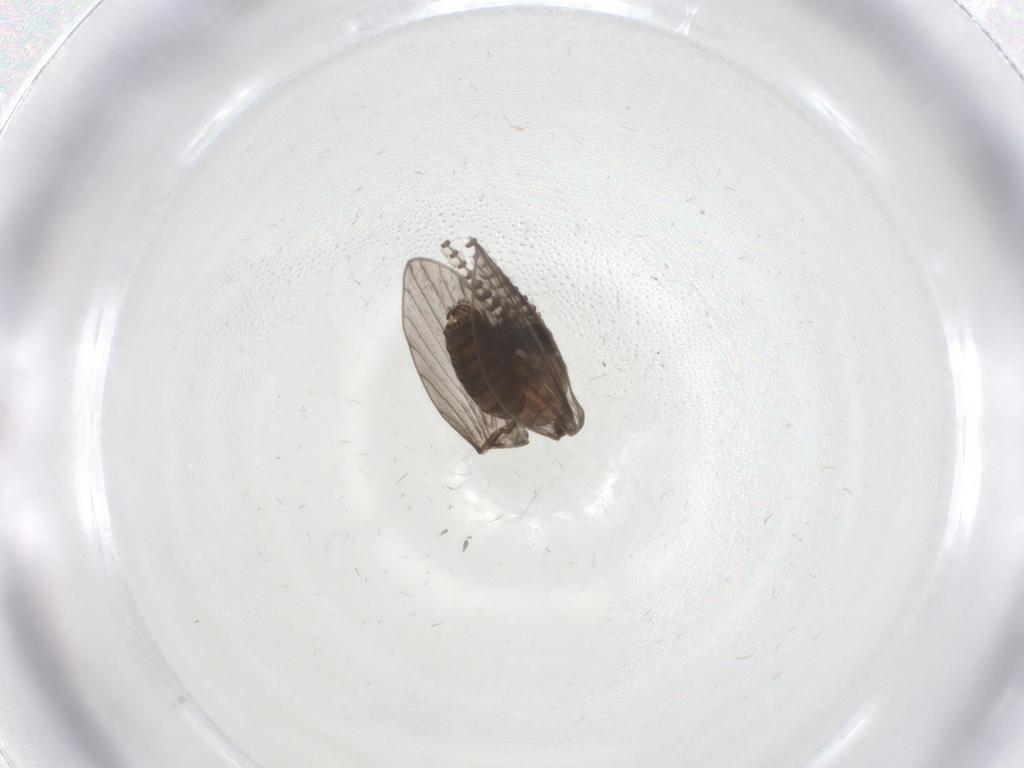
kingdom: Animalia
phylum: Arthropoda
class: Insecta
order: Diptera
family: Psychodidae
